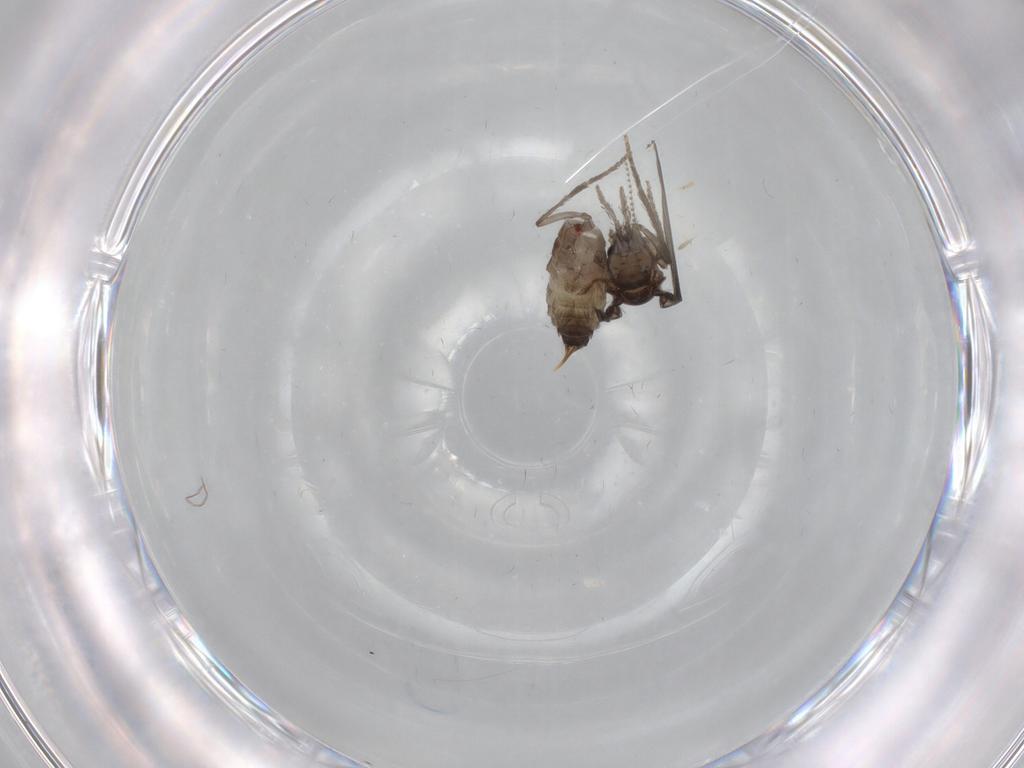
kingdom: Animalia
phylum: Arthropoda
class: Insecta
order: Diptera
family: Psychodidae
